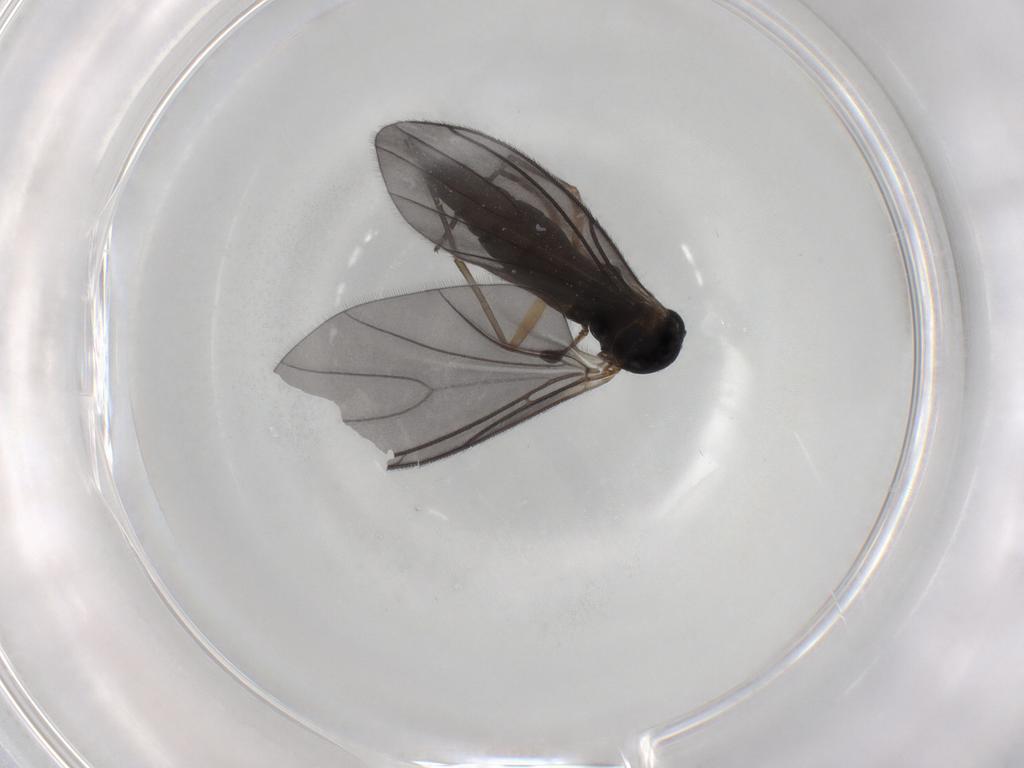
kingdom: Animalia
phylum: Arthropoda
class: Insecta
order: Diptera
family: Sciaridae
